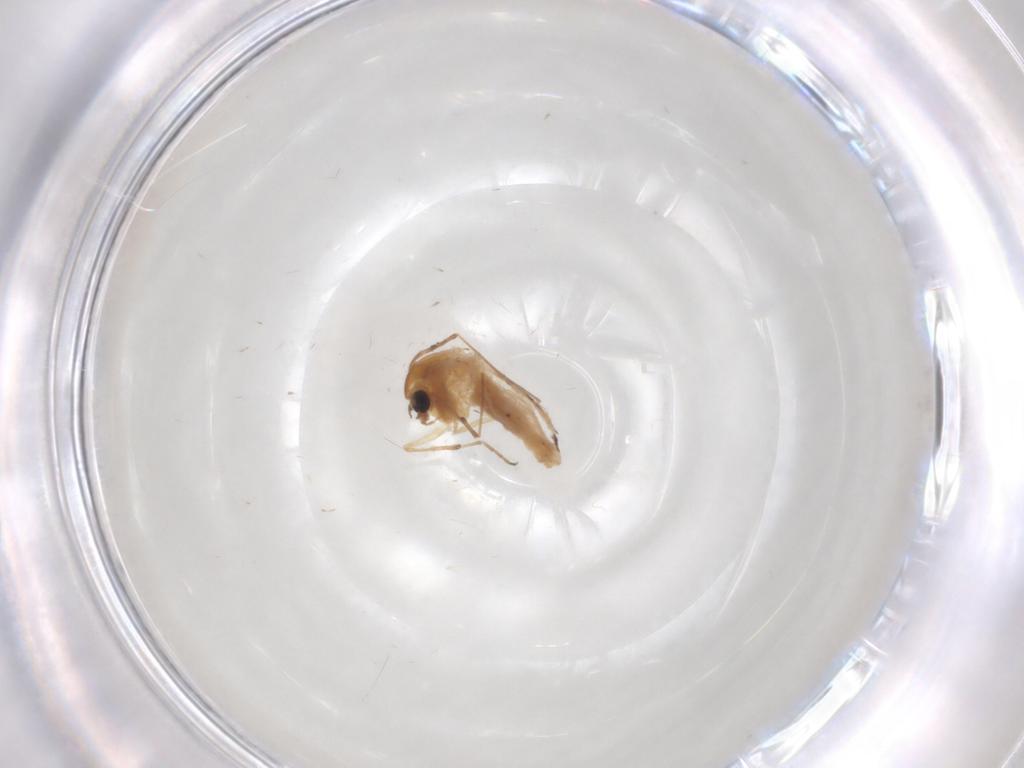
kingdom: Animalia
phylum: Arthropoda
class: Insecta
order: Diptera
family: Chironomidae
